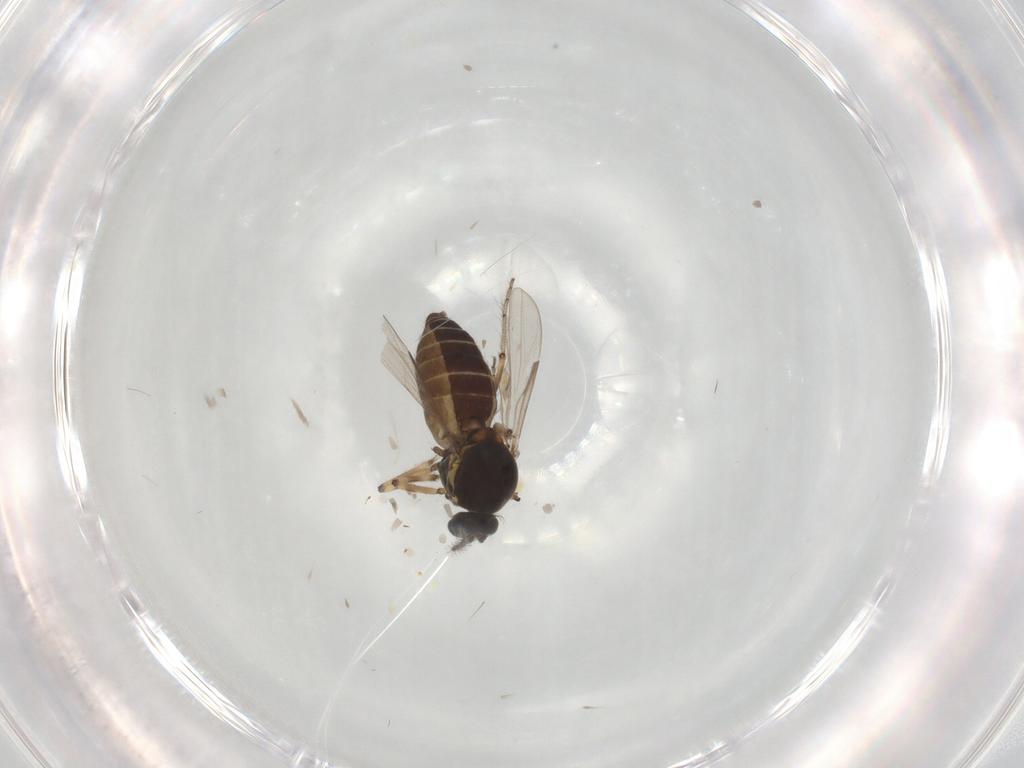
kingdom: Animalia
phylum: Arthropoda
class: Insecta
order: Diptera
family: Ceratopogonidae
